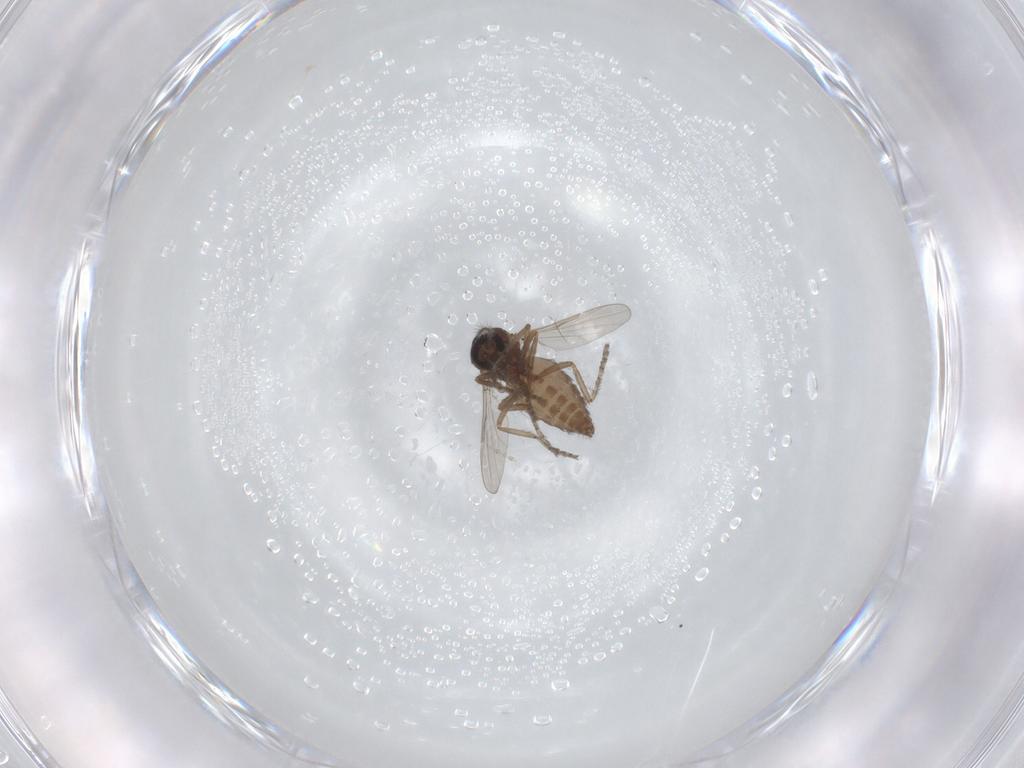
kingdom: Animalia
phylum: Arthropoda
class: Insecta
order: Diptera
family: Ceratopogonidae
